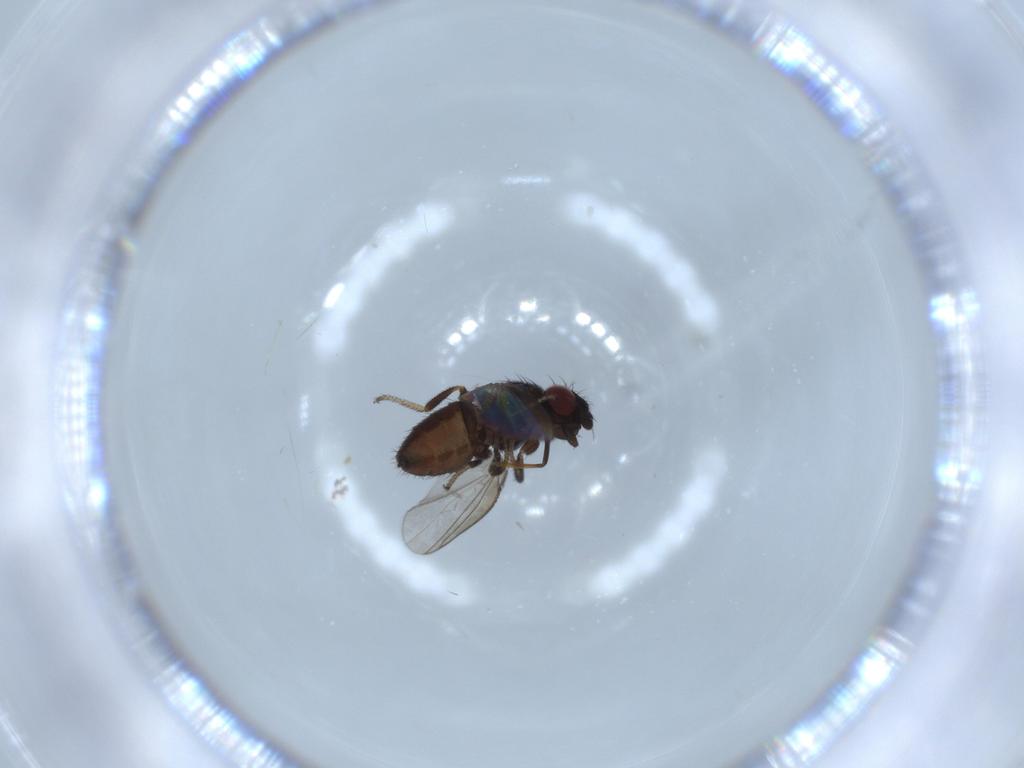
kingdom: Animalia
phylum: Arthropoda
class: Insecta
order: Diptera
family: Milichiidae
